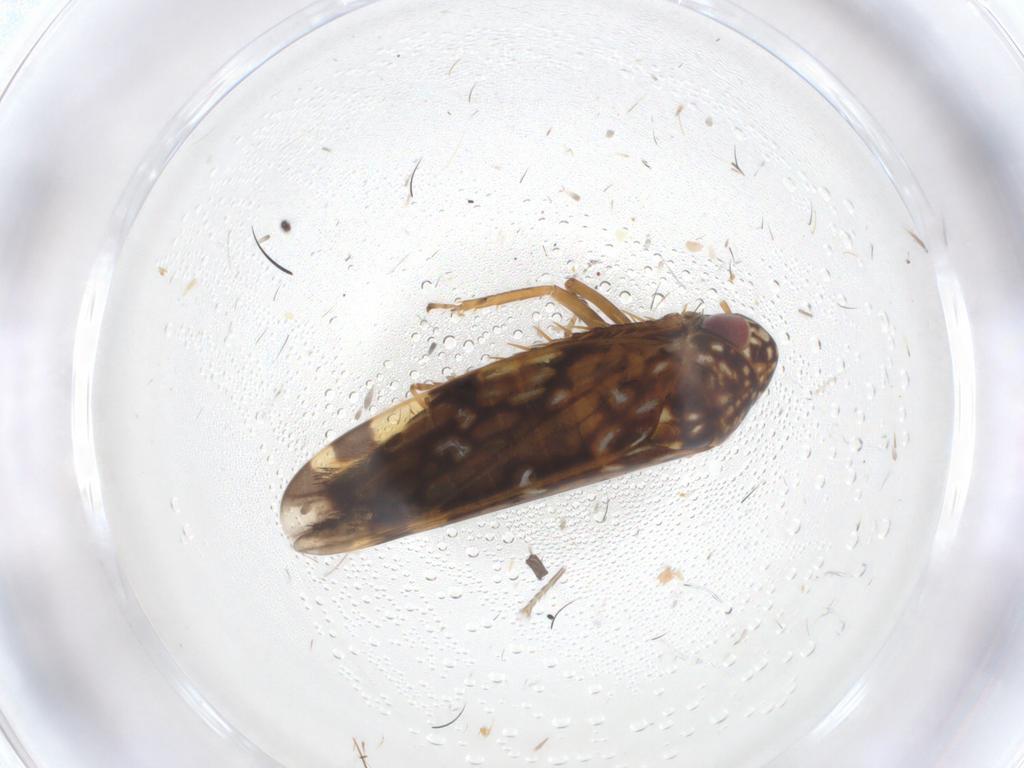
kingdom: Animalia
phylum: Arthropoda
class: Insecta
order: Hemiptera
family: Cicadellidae
